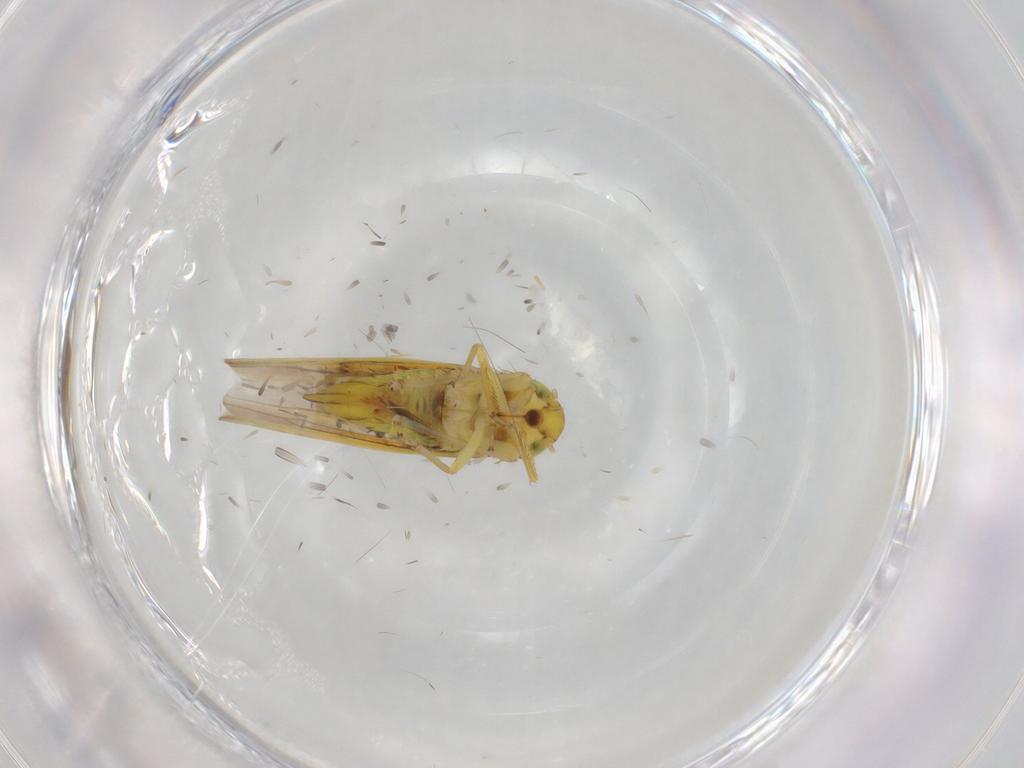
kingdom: Animalia
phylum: Arthropoda
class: Insecta
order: Diptera
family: Ceratopogonidae
